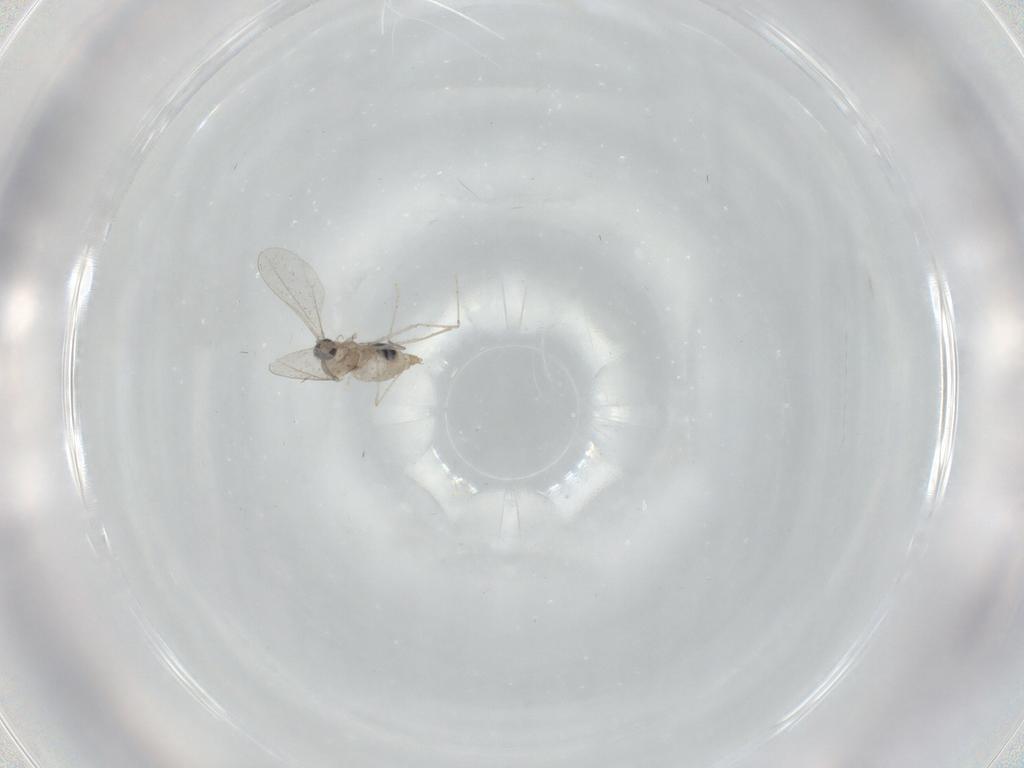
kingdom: Animalia
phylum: Arthropoda
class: Insecta
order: Diptera
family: Cecidomyiidae
